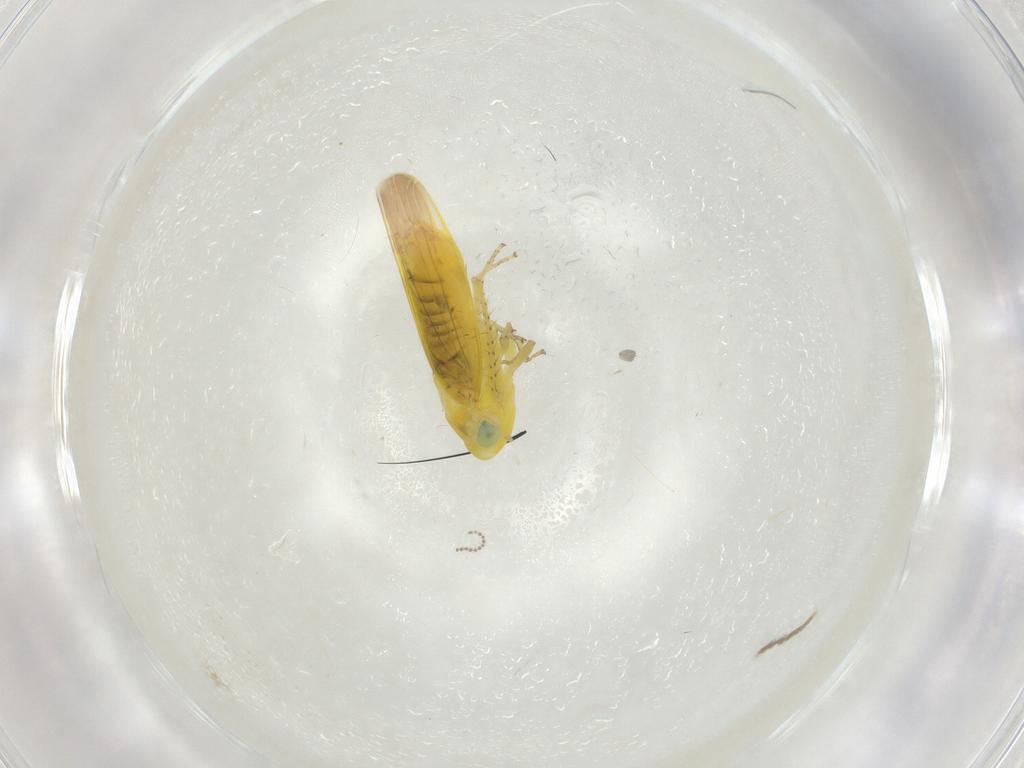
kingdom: Animalia
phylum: Arthropoda
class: Insecta
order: Hemiptera
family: Cicadellidae
